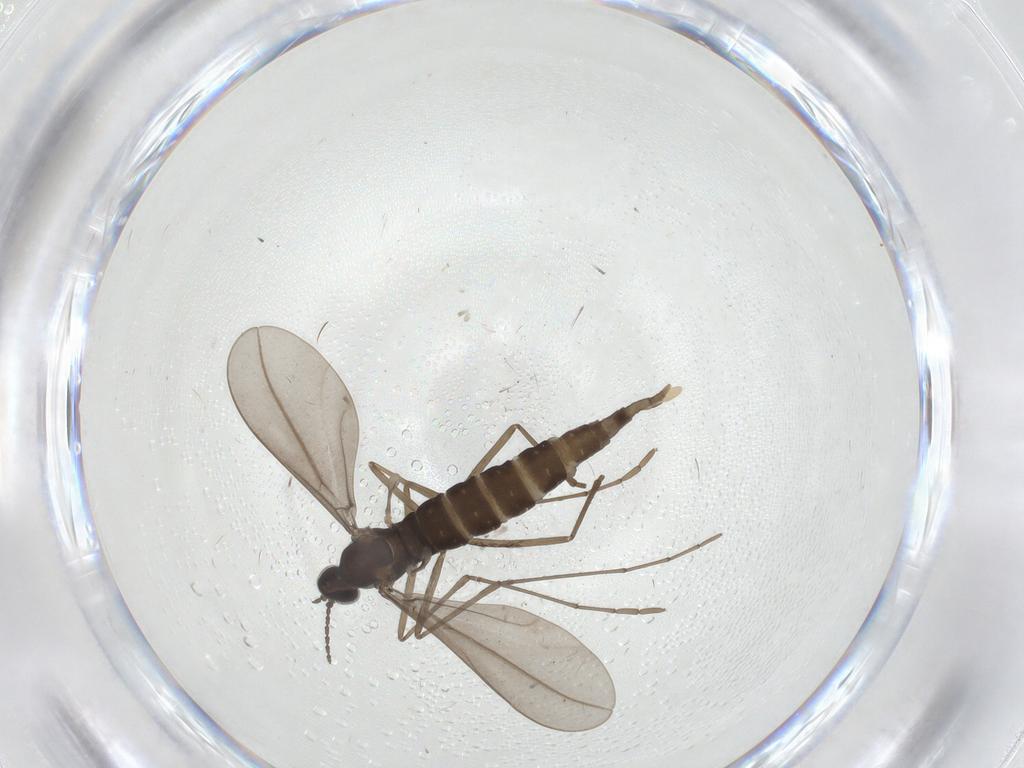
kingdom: Animalia
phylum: Arthropoda
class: Insecta
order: Diptera
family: Cecidomyiidae
